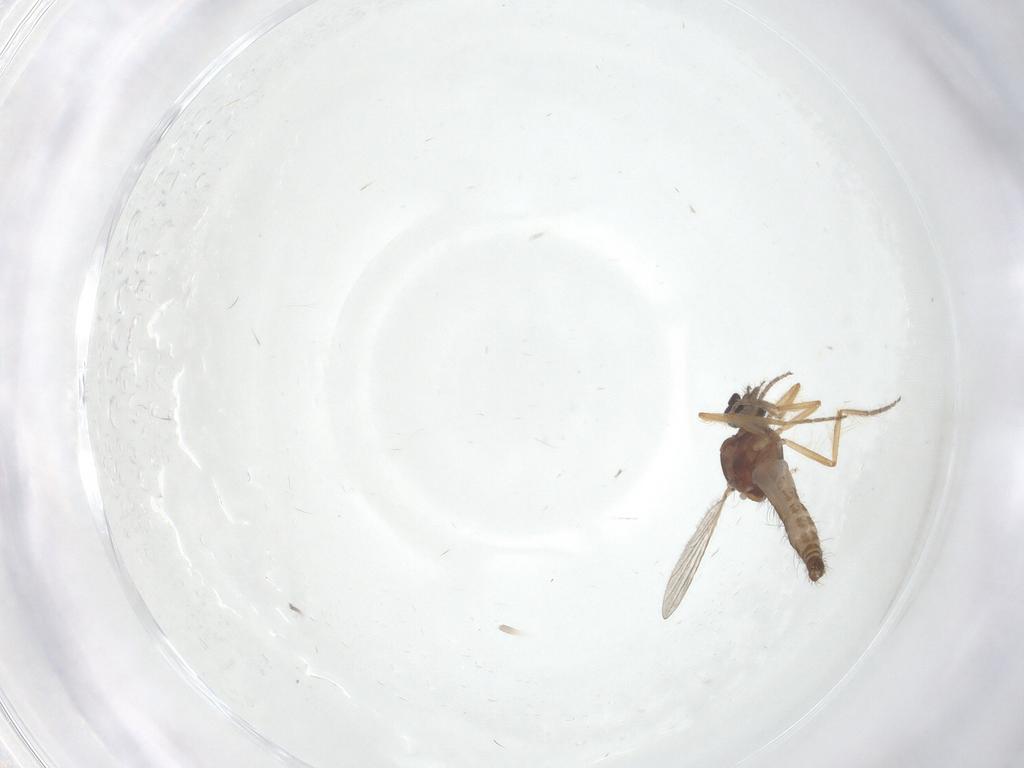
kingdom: Animalia
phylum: Arthropoda
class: Insecta
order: Diptera
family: Ceratopogonidae
